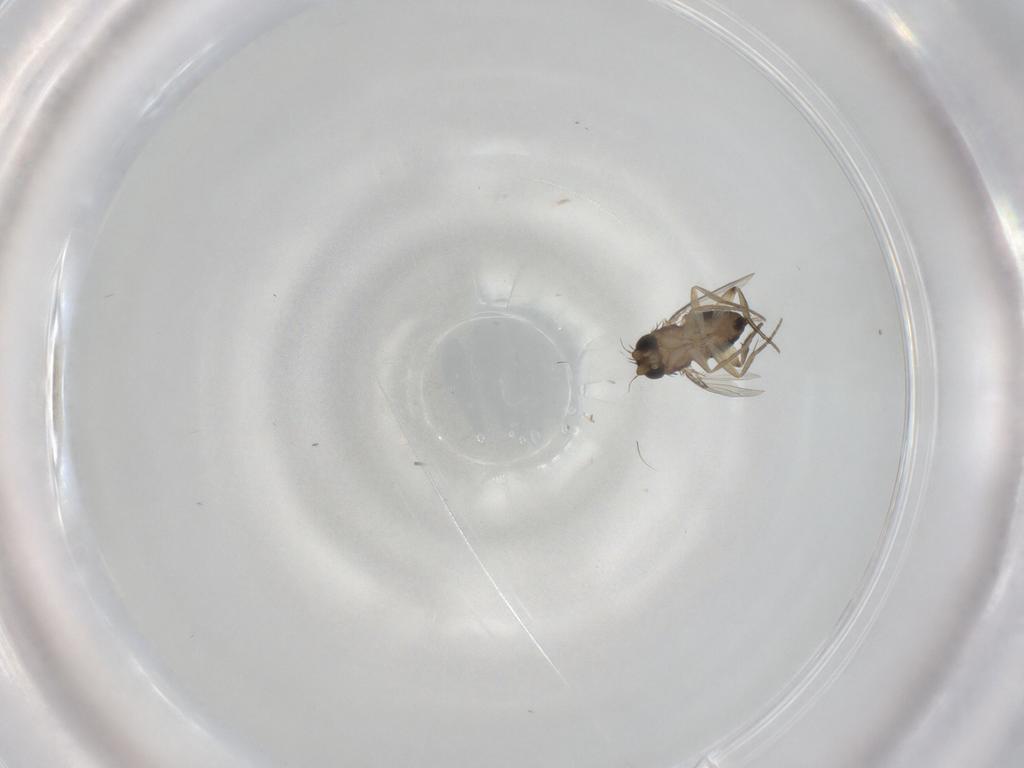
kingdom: Animalia
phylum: Arthropoda
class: Insecta
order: Diptera
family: Phoridae
